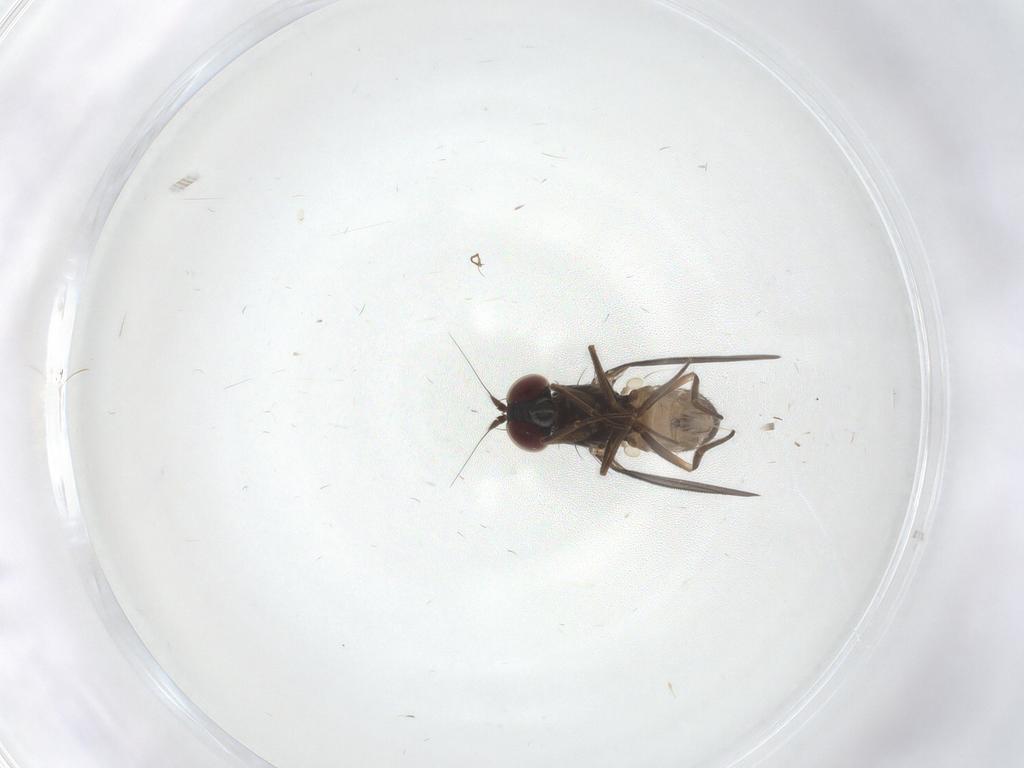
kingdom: Animalia
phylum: Arthropoda
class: Insecta
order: Diptera
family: Dolichopodidae
